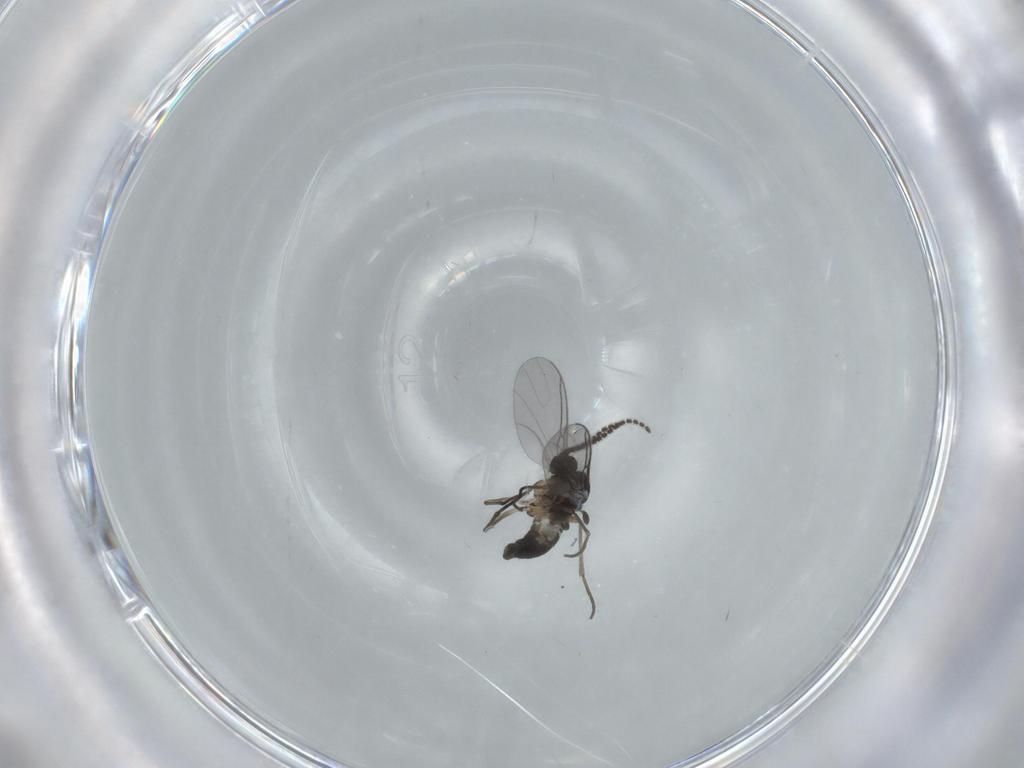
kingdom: Animalia
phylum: Arthropoda
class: Insecta
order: Diptera
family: Sciaridae
